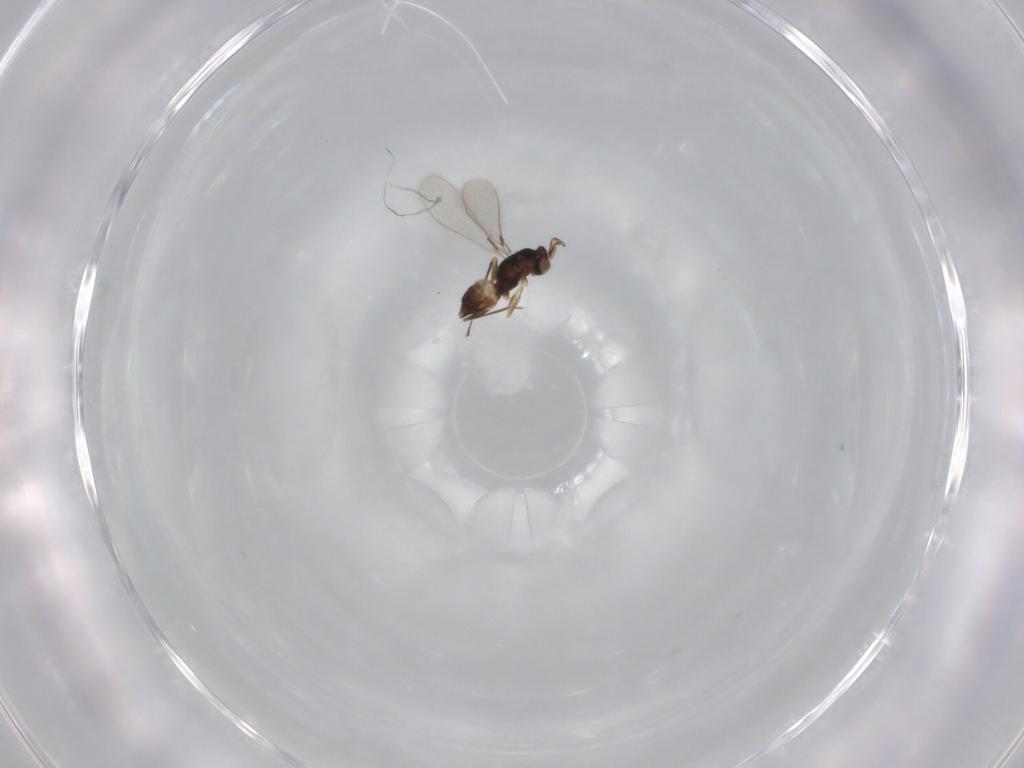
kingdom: Animalia
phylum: Arthropoda
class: Insecta
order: Hymenoptera
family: Mymaridae
